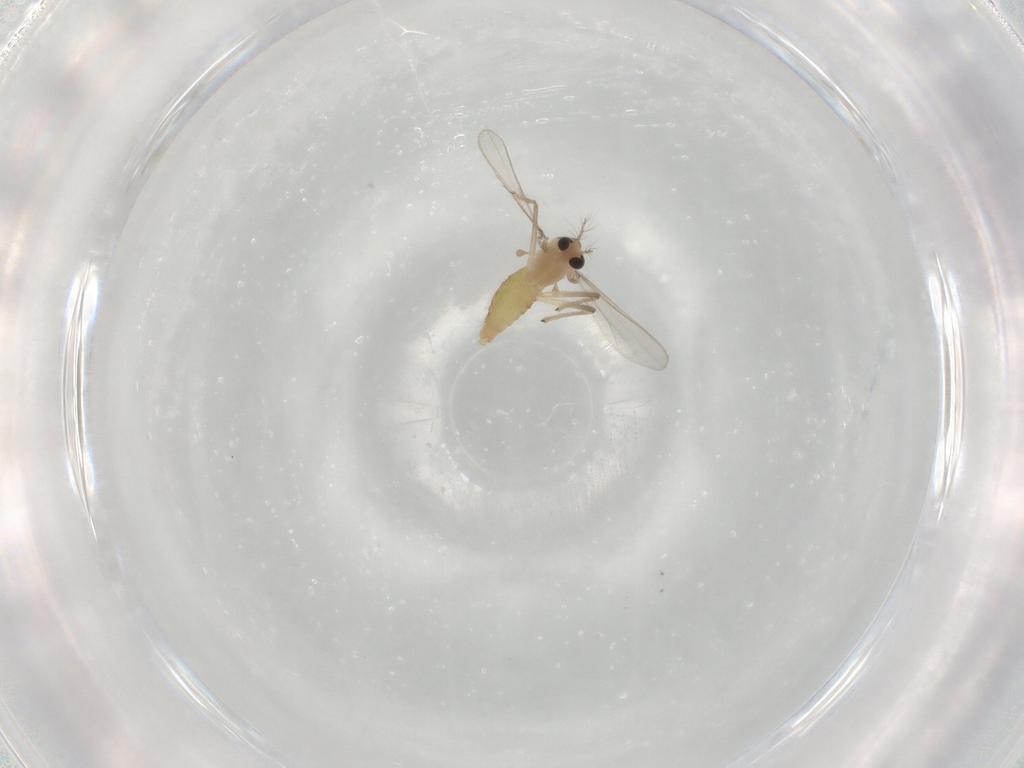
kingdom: Animalia
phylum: Arthropoda
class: Insecta
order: Diptera
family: Chironomidae
